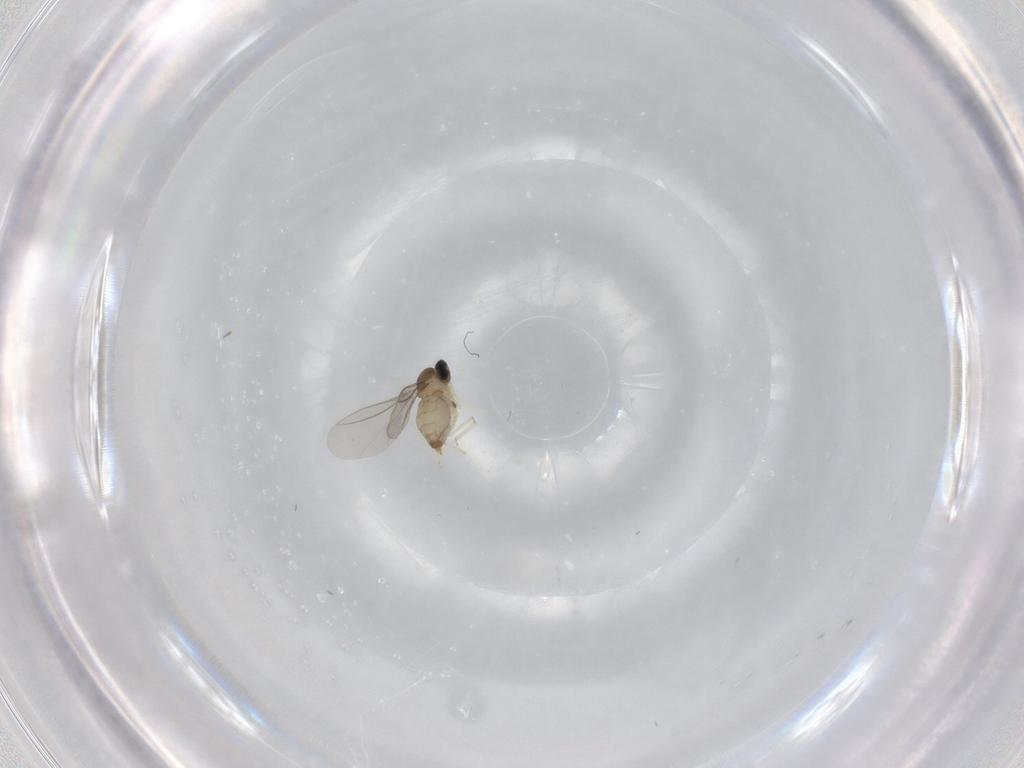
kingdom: Animalia
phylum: Arthropoda
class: Insecta
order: Diptera
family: Cecidomyiidae
